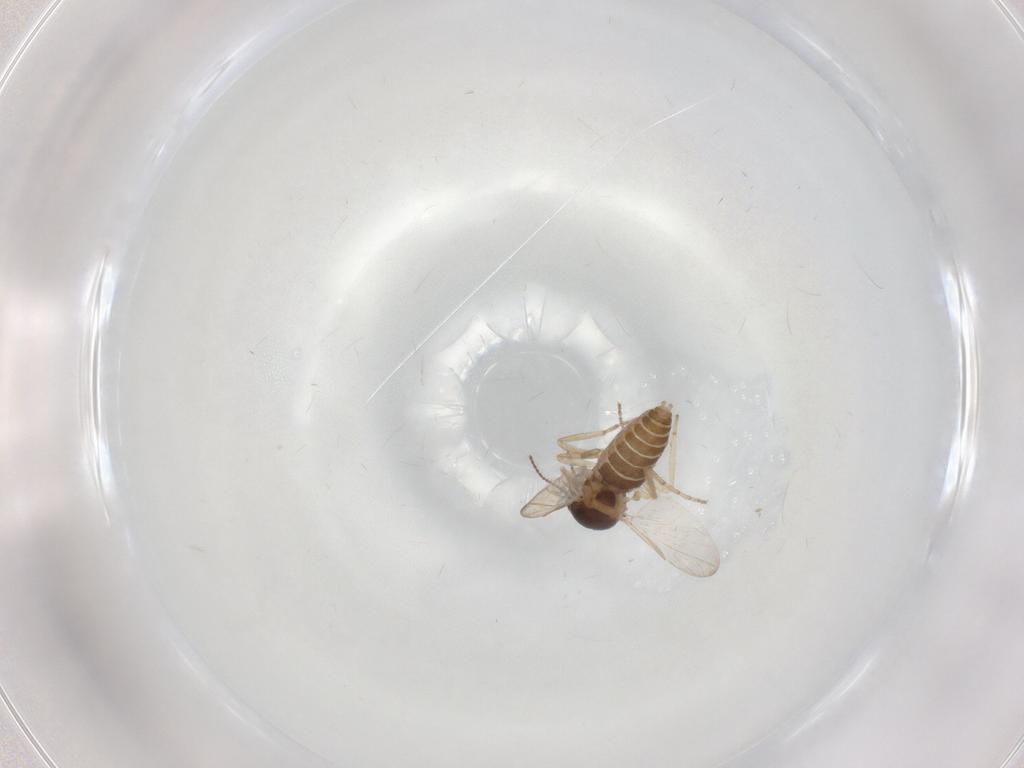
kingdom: Animalia
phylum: Arthropoda
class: Insecta
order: Diptera
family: Ceratopogonidae
